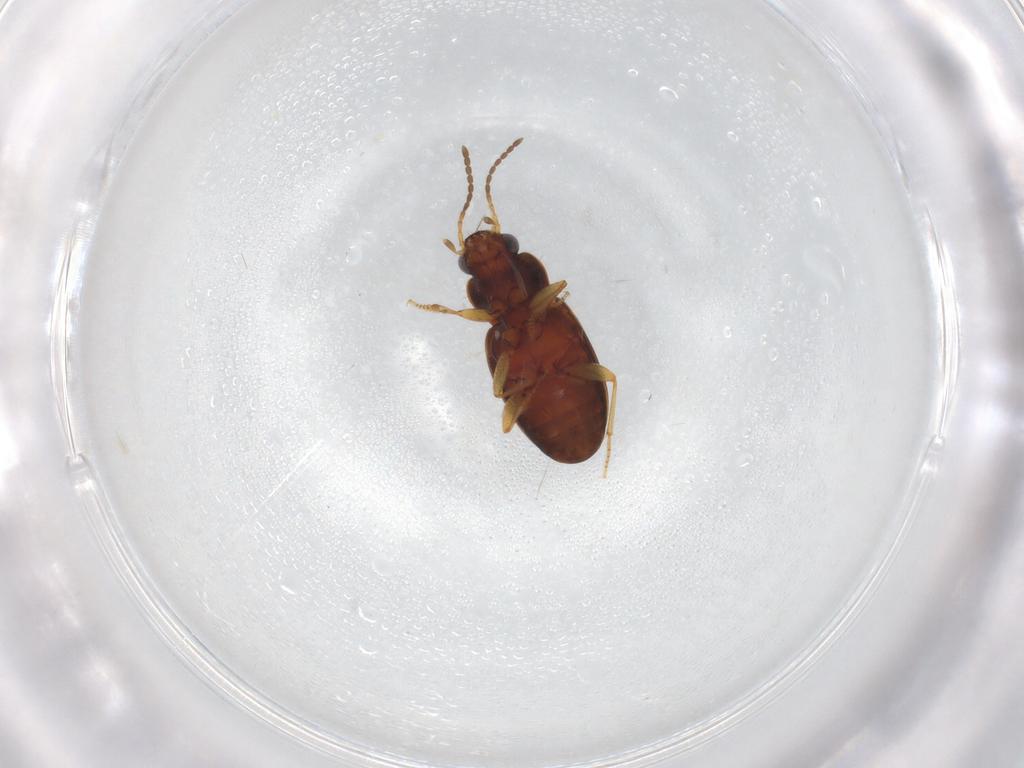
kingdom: Animalia
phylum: Arthropoda
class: Insecta
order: Coleoptera
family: Carabidae
